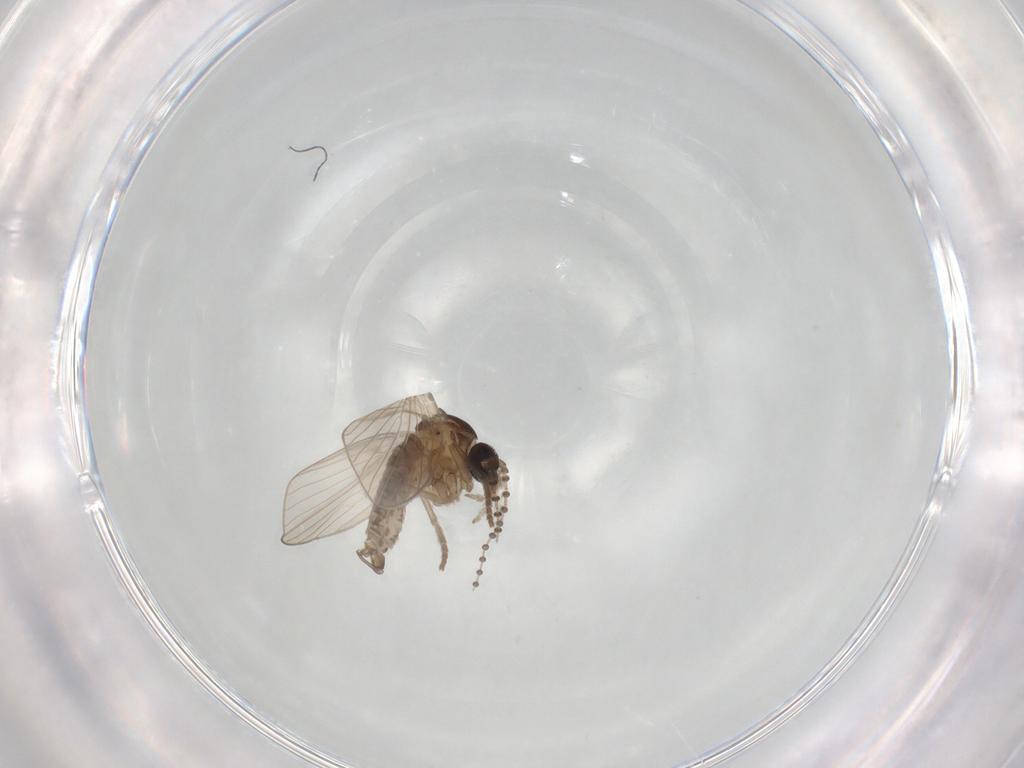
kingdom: Animalia
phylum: Arthropoda
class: Insecta
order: Diptera
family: Psychodidae
